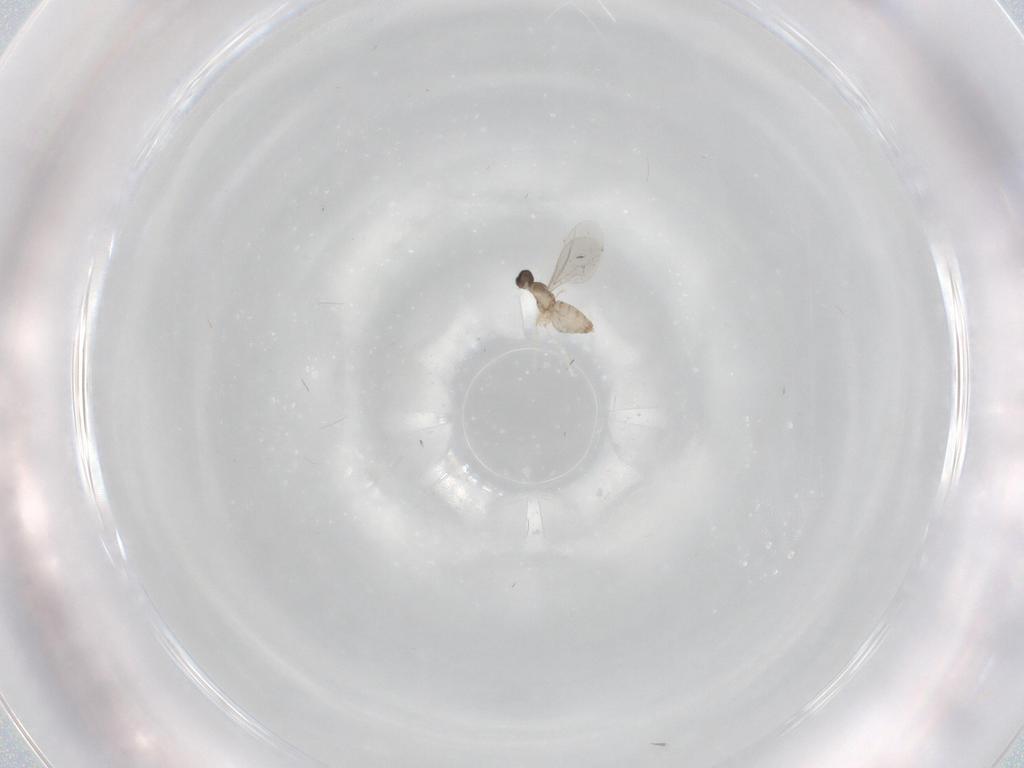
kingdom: Animalia
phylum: Arthropoda
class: Insecta
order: Diptera
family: Cecidomyiidae
